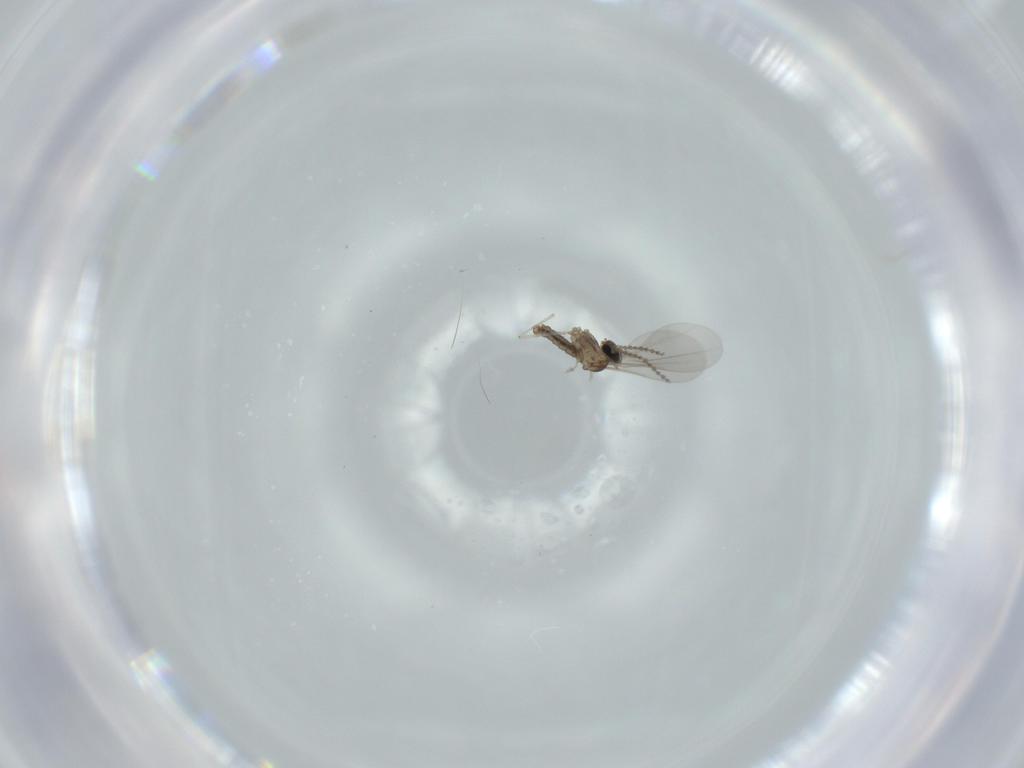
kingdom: Animalia
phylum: Arthropoda
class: Insecta
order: Diptera
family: Cecidomyiidae
